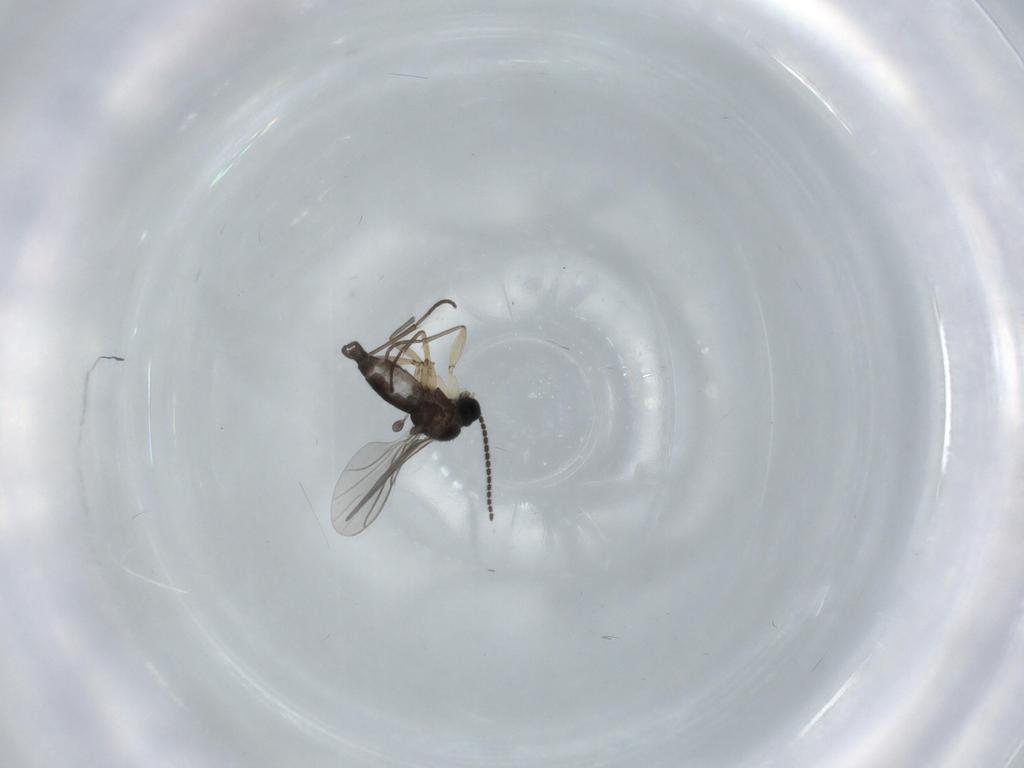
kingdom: Animalia
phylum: Arthropoda
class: Insecta
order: Diptera
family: Sciaridae
